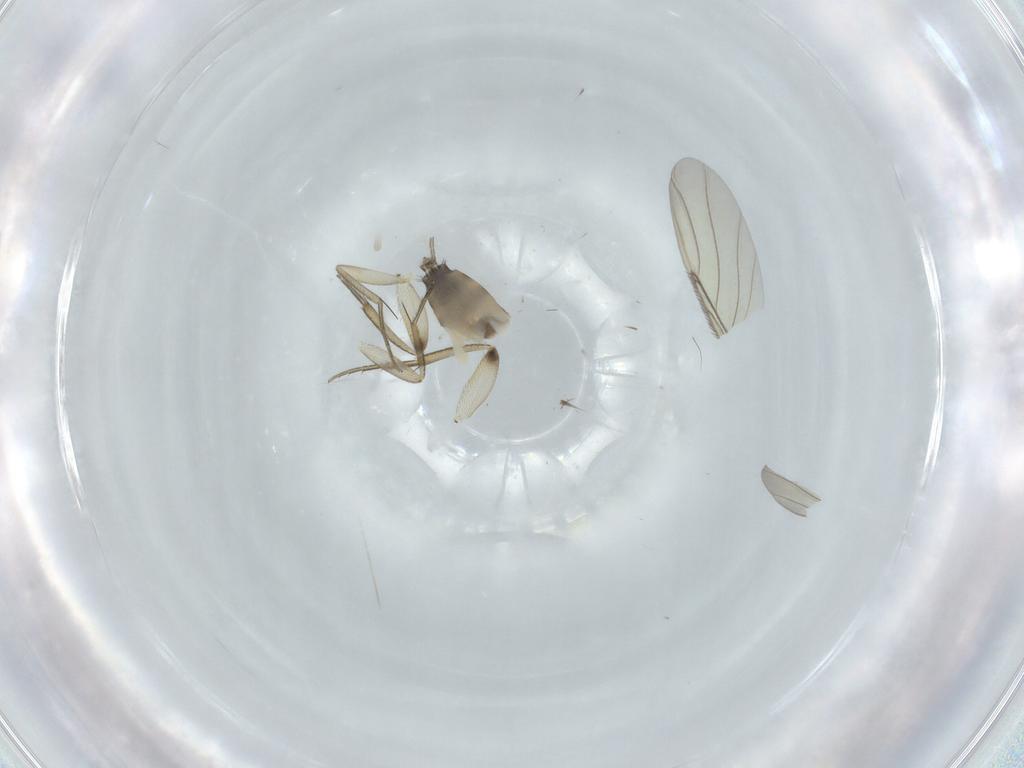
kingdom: Animalia
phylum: Arthropoda
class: Insecta
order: Diptera
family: Phoridae
